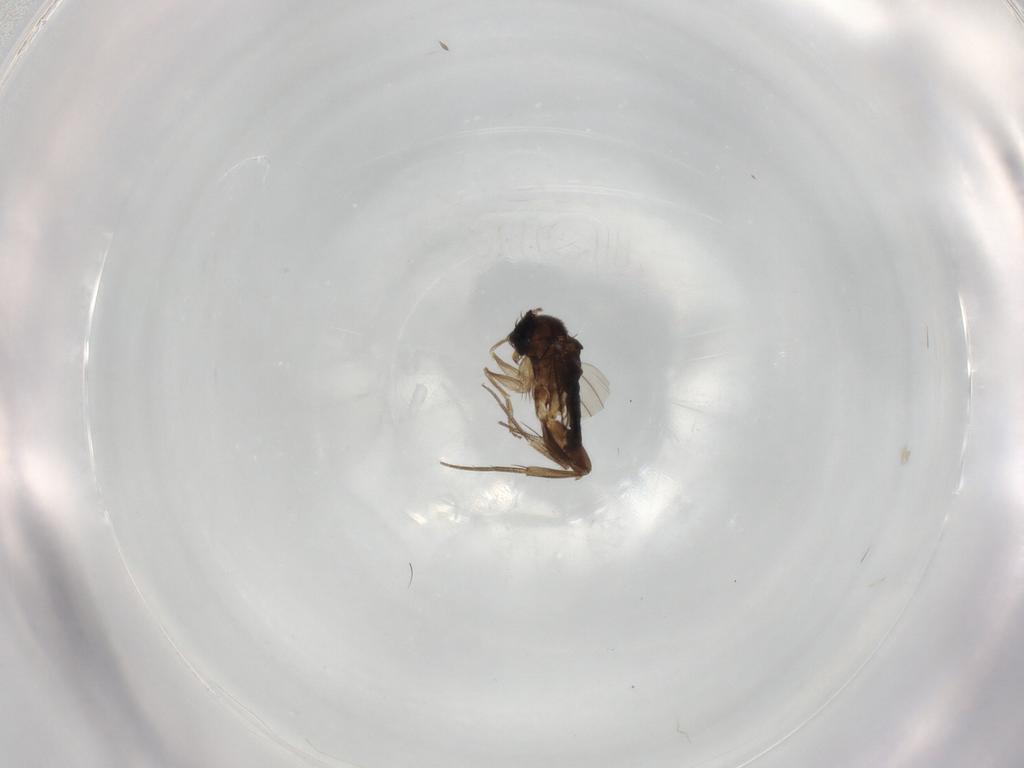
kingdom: Animalia
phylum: Arthropoda
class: Insecta
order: Diptera
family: Phoridae
